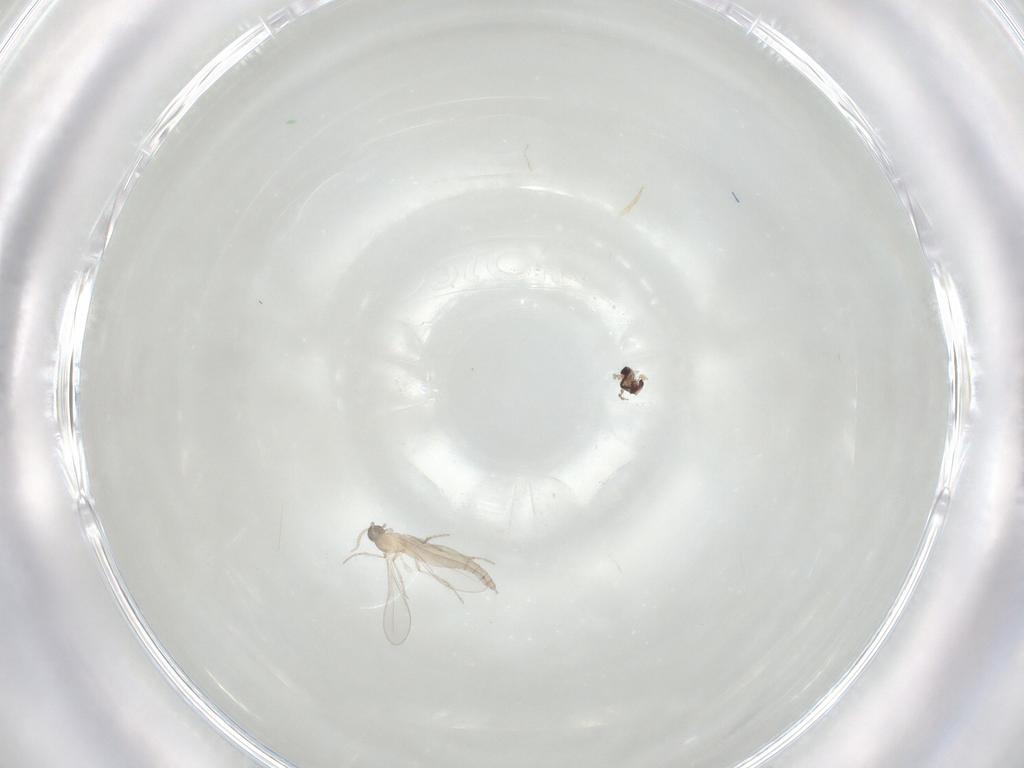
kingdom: Animalia
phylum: Arthropoda
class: Insecta
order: Diptera
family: Cecidomyiidae
